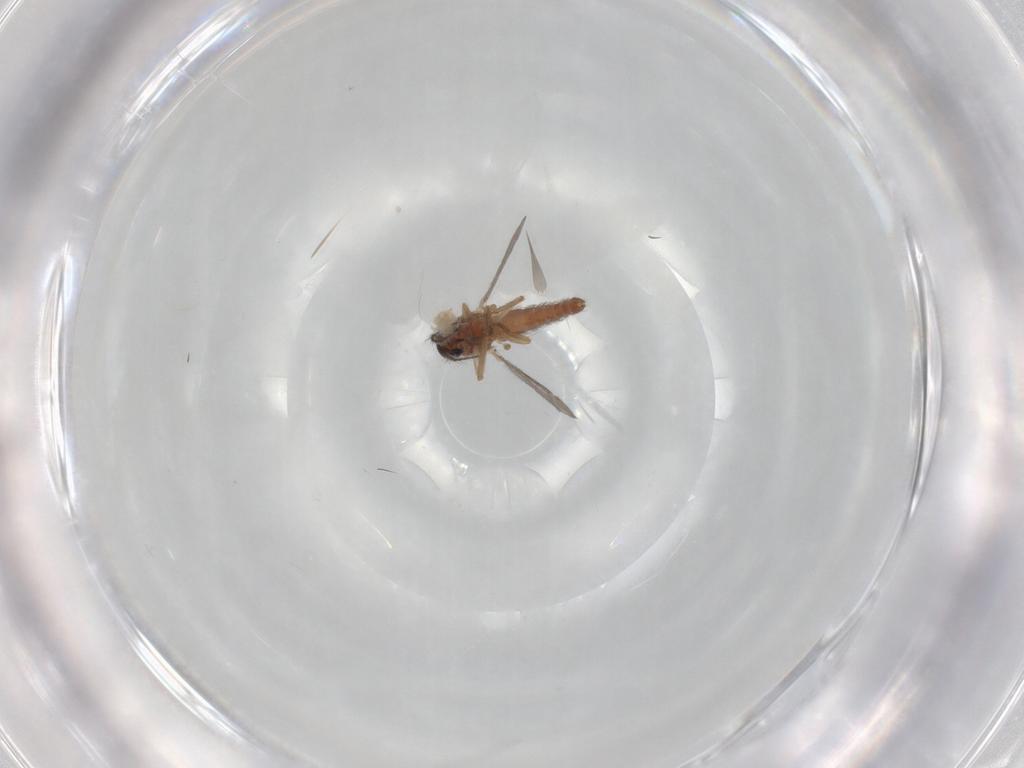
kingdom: Animalia
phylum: Arthropoda
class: Insecta
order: Diptera
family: Ceratopogonidae
